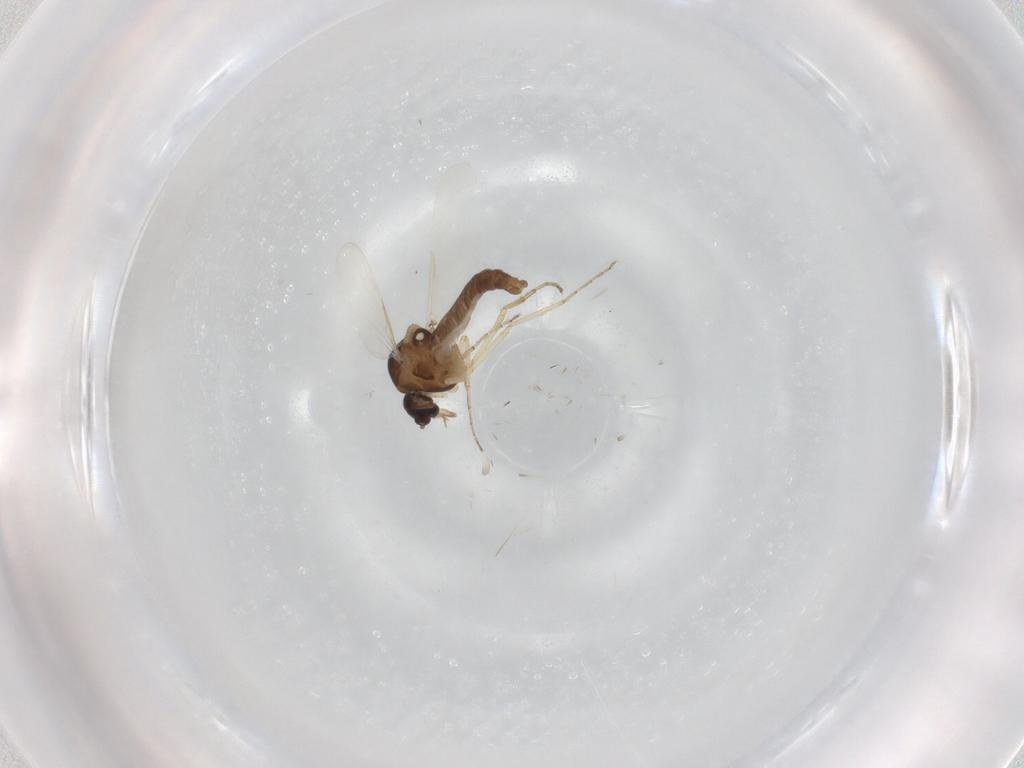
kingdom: Animalia
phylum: Arthropoda
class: Insecta
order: Diptera
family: Ceratopogonidae
